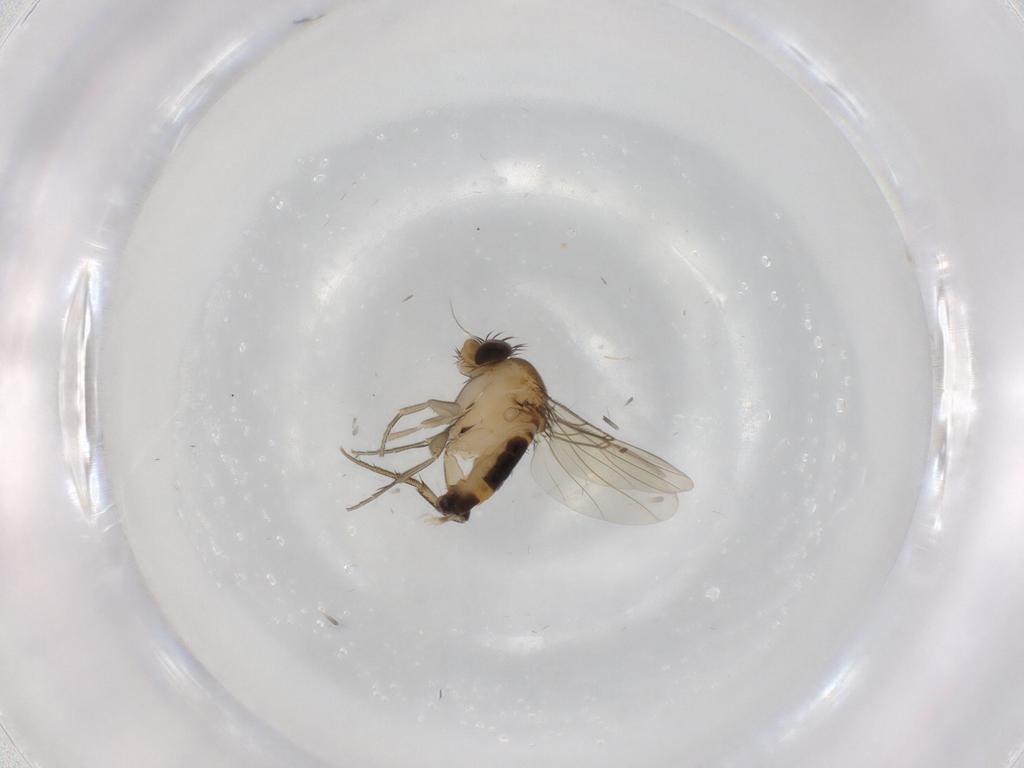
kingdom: Animalia
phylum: Arthropoda
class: Insecta
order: Diptera
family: Phoridae
